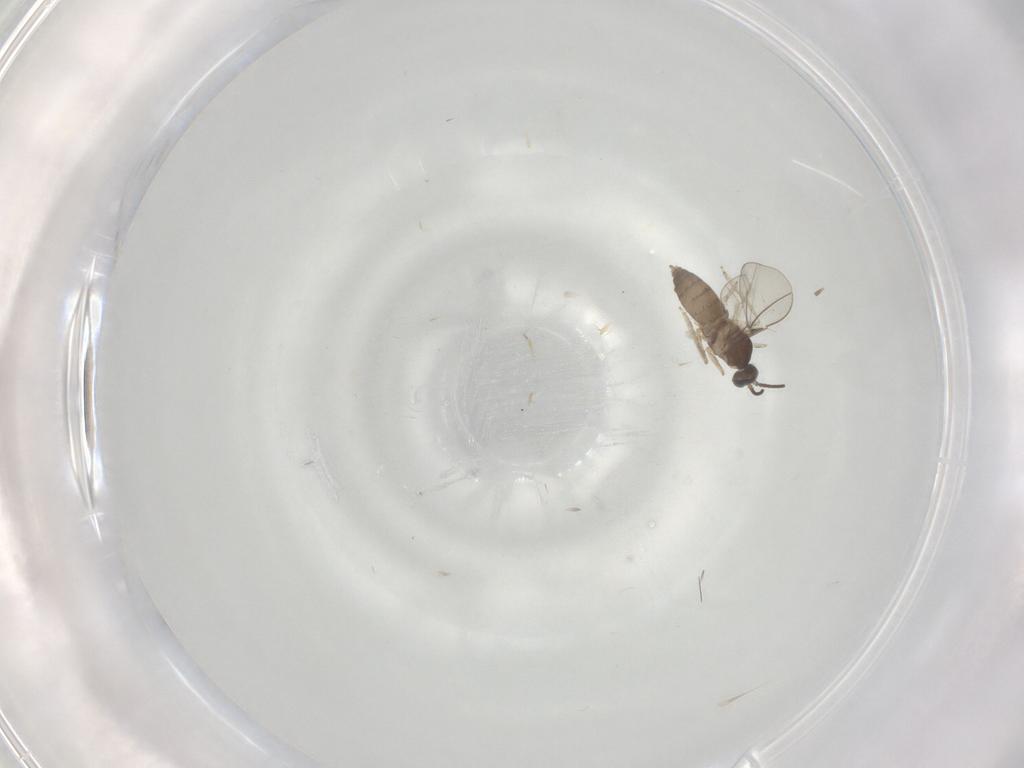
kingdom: Animalia
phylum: Arthropoda
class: Insecta
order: Diptera
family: Cecidomyiidae
